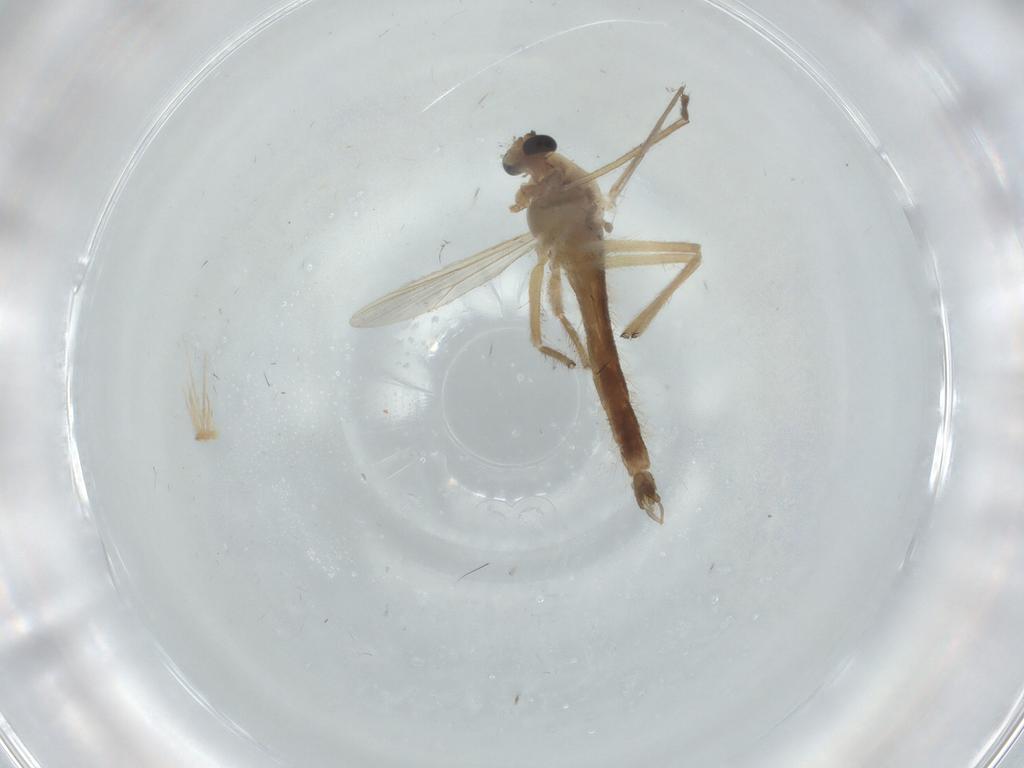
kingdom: Animalia
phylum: Arthropoda
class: Insecta
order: Diptera
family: Chironomidae
